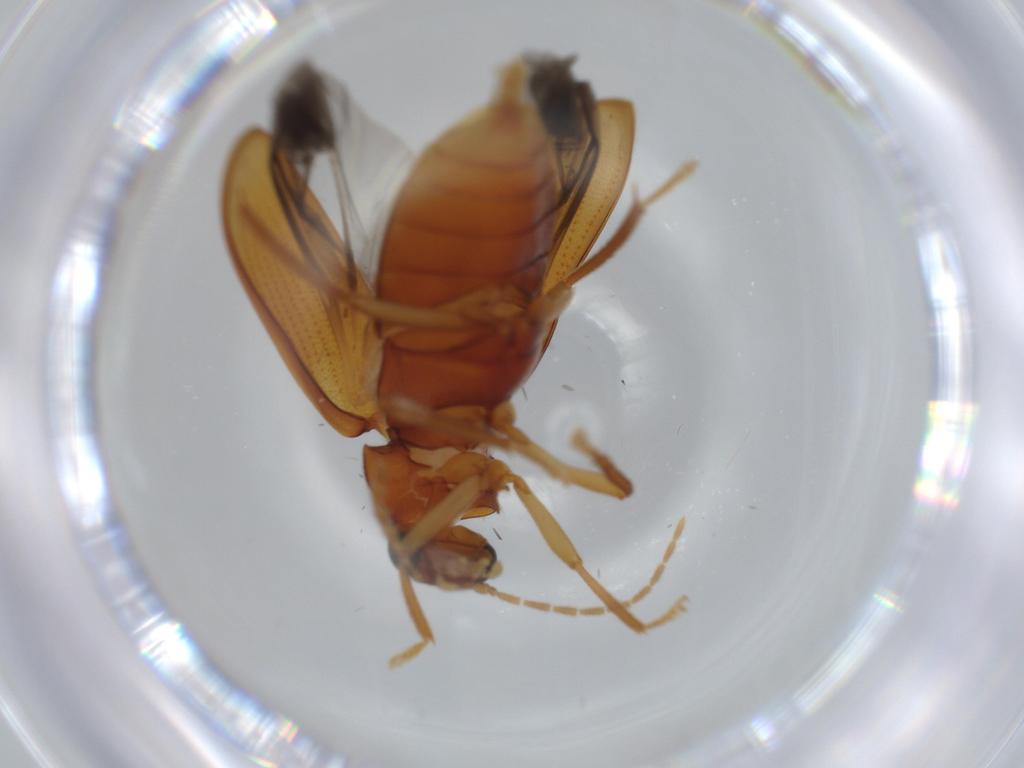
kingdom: Animalia
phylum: Arthropoda
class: Insecta
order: Coleoptera
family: Ptilodactylidae
